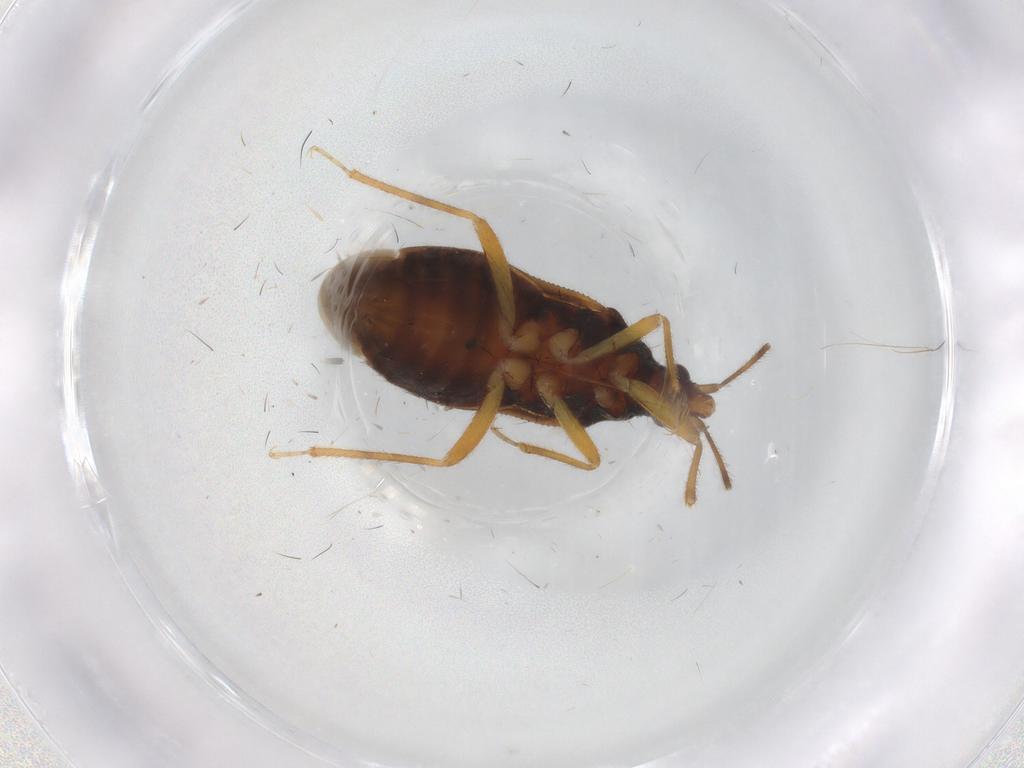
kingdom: Animalia
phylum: Arthropoda
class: Insecta
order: Hemiptera
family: Anthocoridae
